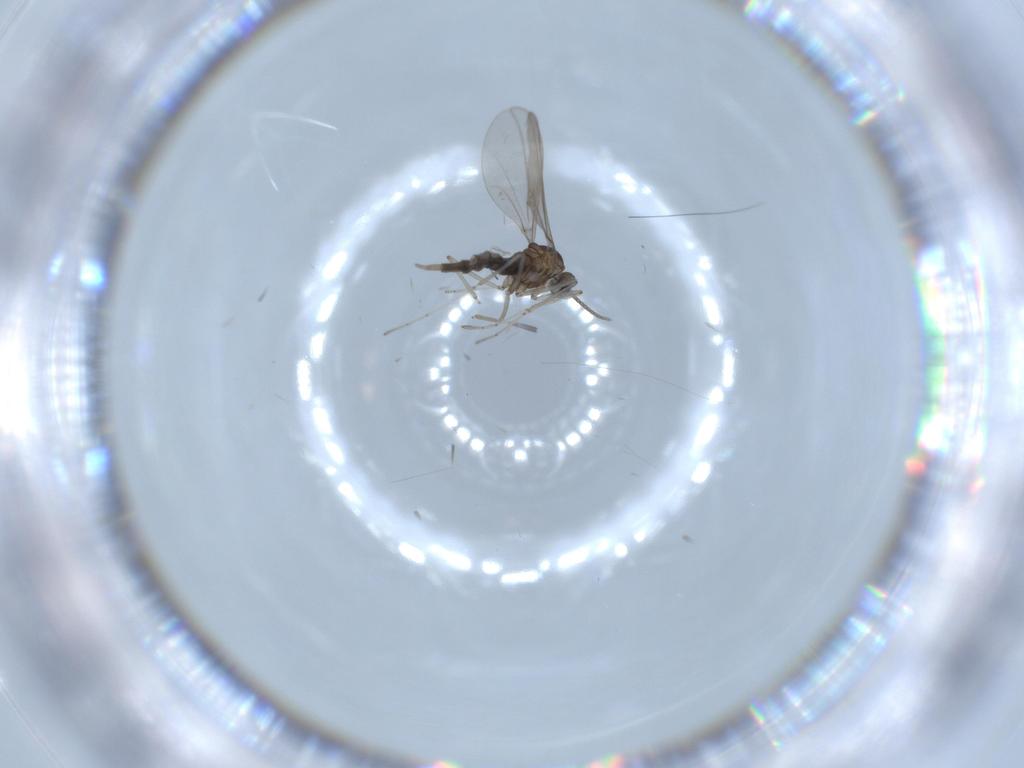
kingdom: Animalia
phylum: Arthropoda
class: Insecta
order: Diptera
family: Cecidomyiidae
